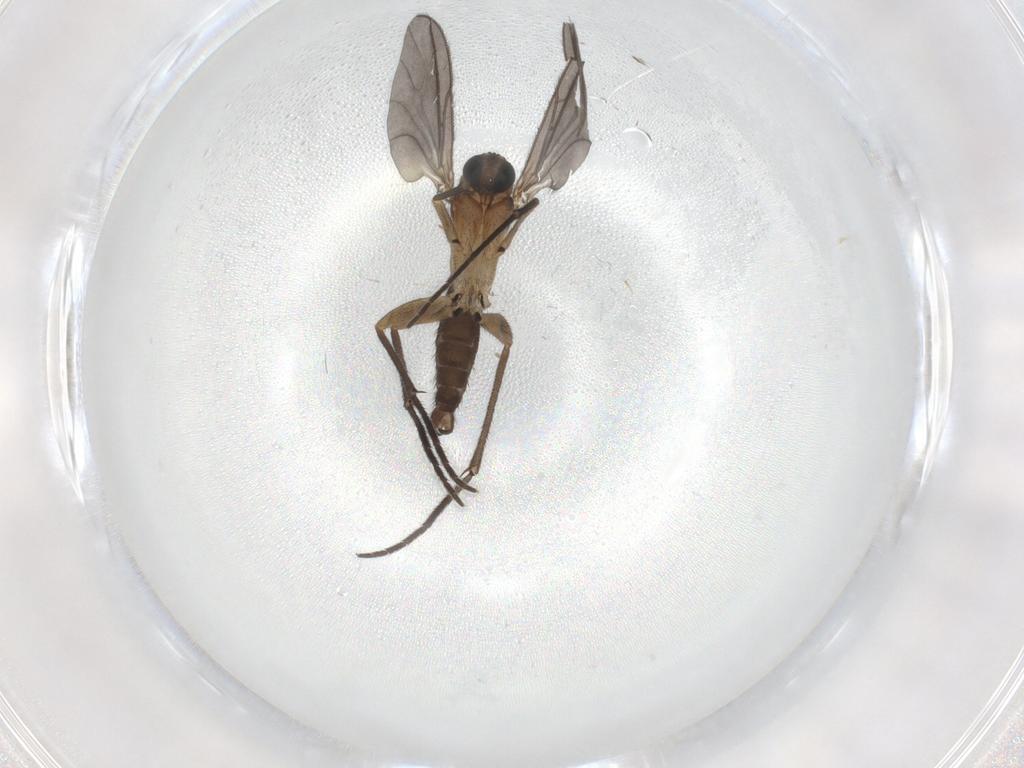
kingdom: Animalia
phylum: Arthropoda
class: Insecta
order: Diptera
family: Sciaridae
